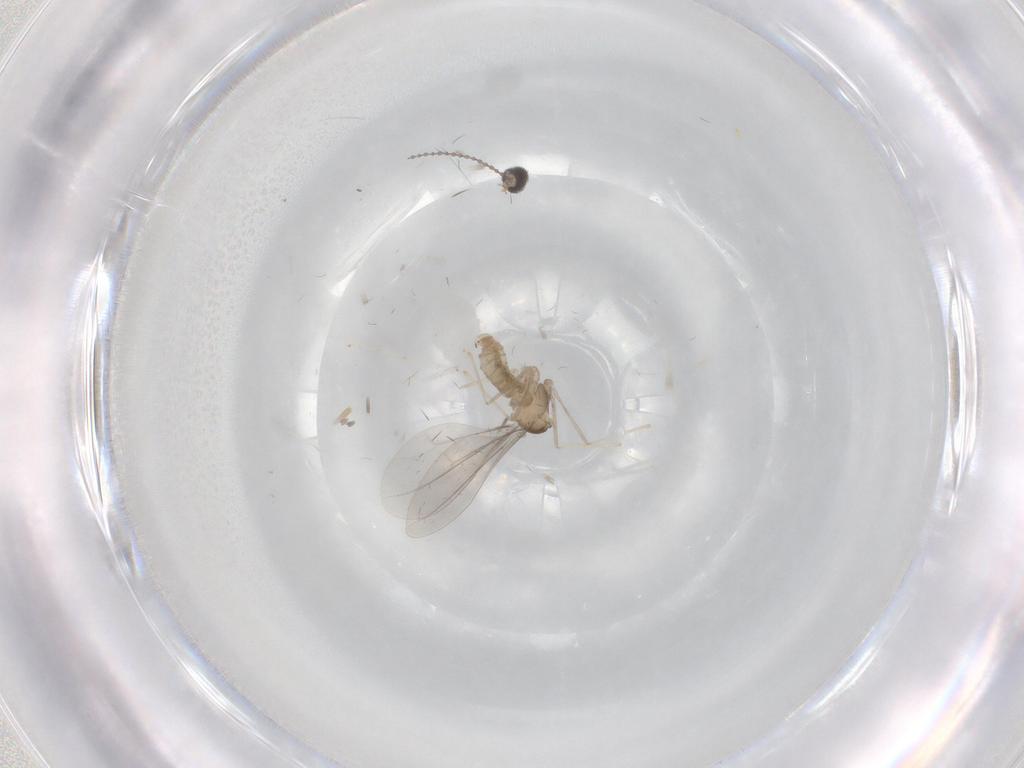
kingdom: Animalia
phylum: Arthropoda
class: Insecta
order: Diptera
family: Cecidomyiidae
